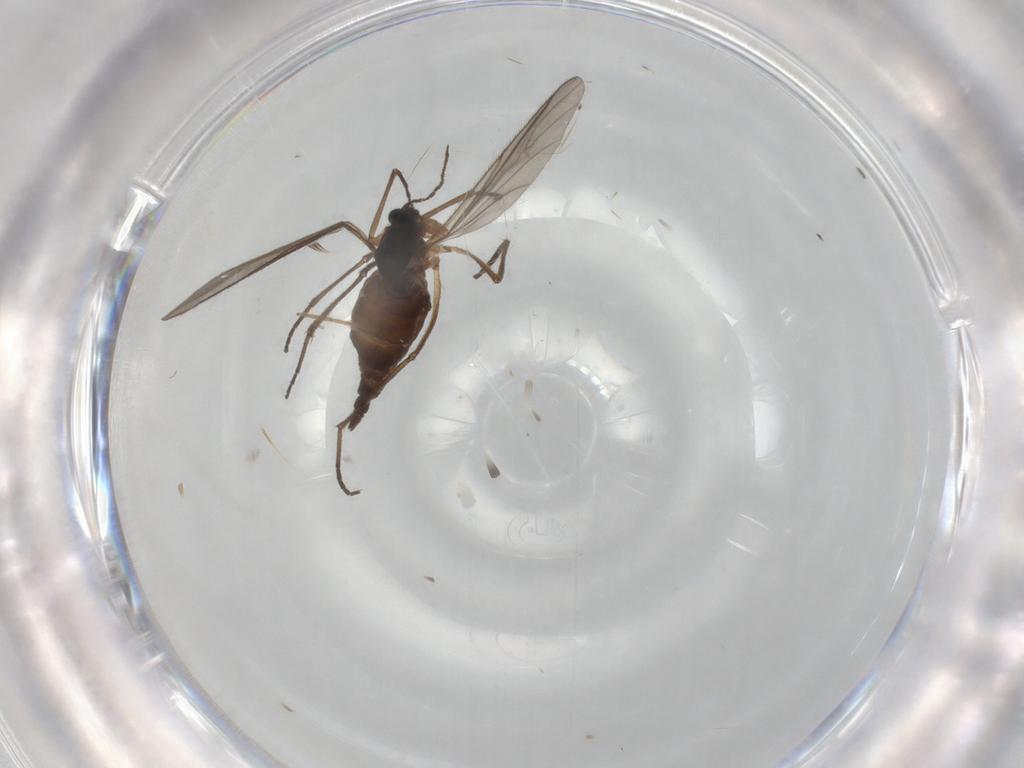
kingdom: Animalia
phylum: Arthropoda
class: Insecta
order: Diptera
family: Sciaridae
